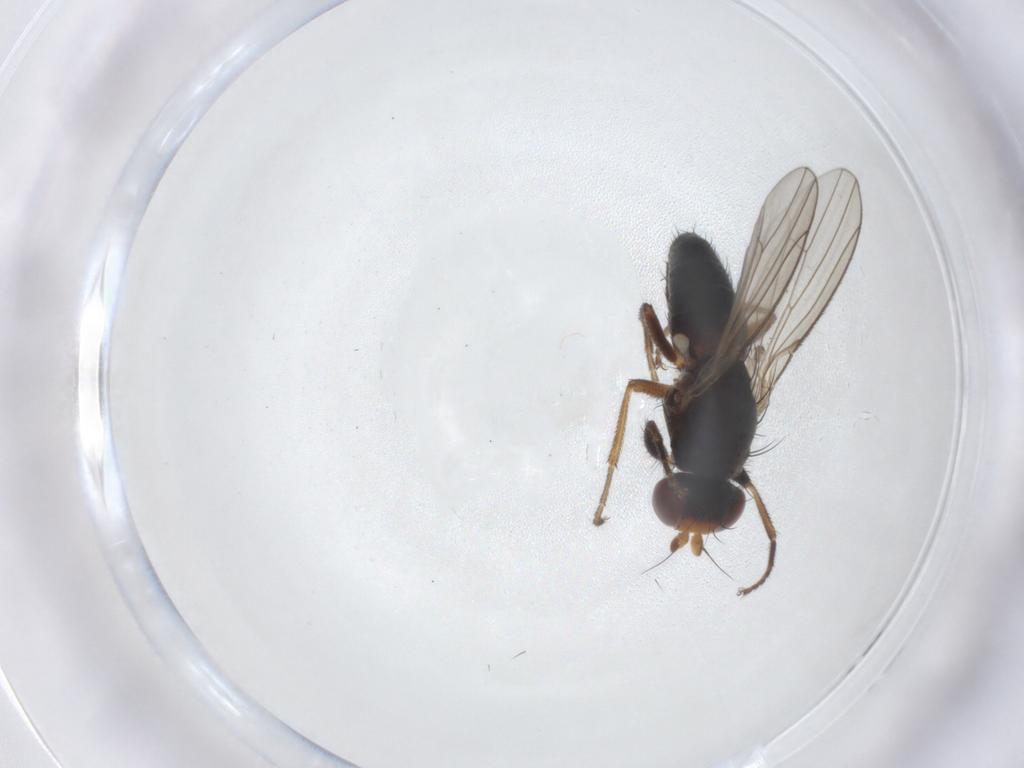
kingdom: Animalia
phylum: Arthropoda
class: Insecta
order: Diptera
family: Heleomyzidae
